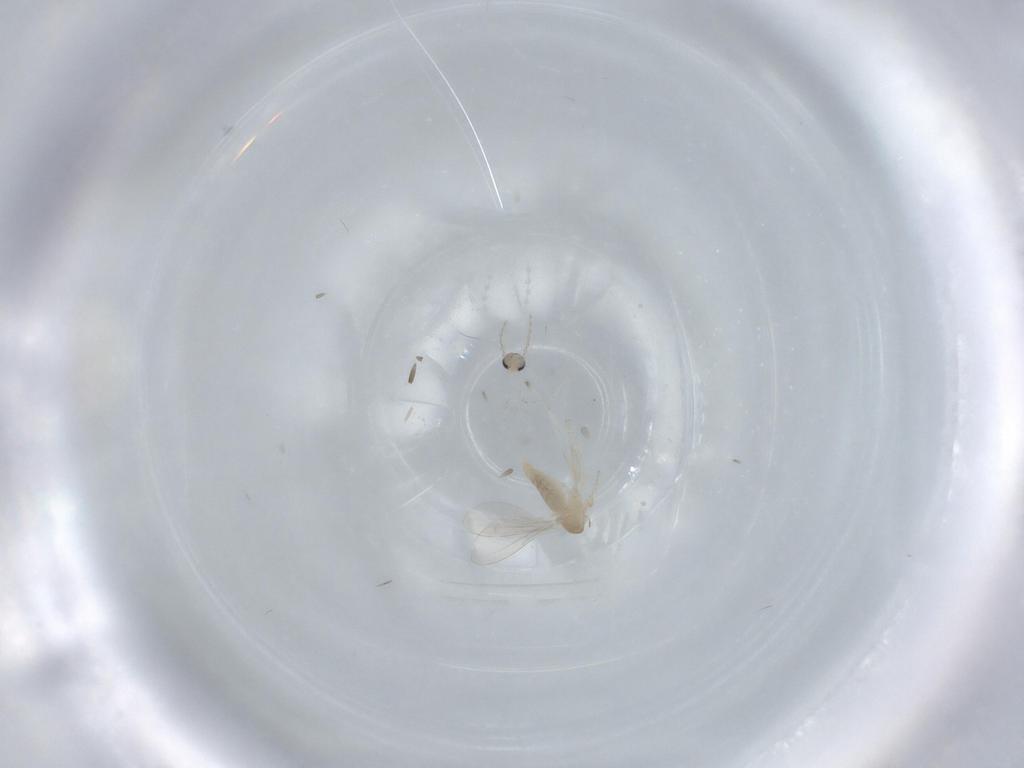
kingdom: Animalia
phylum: Arthropoda
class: Insecta
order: Diptera
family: Cecidomyiidae
